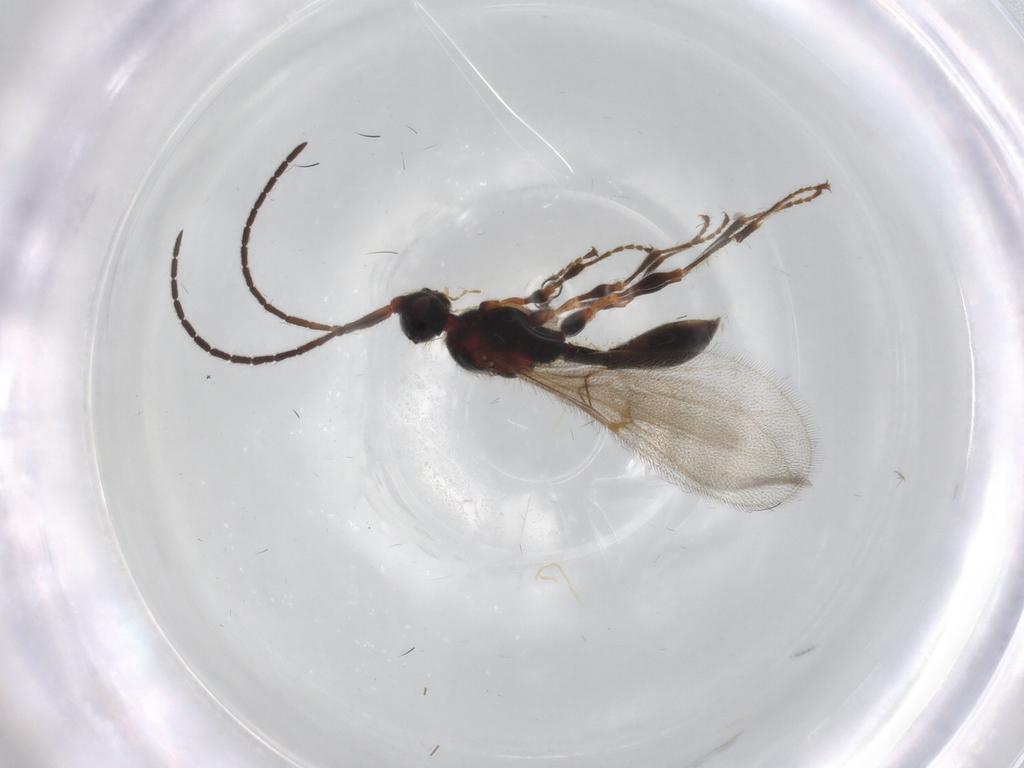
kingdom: Animalia
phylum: Arthropoda
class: Insecta
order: Hymenoptera
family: Diapriidae
